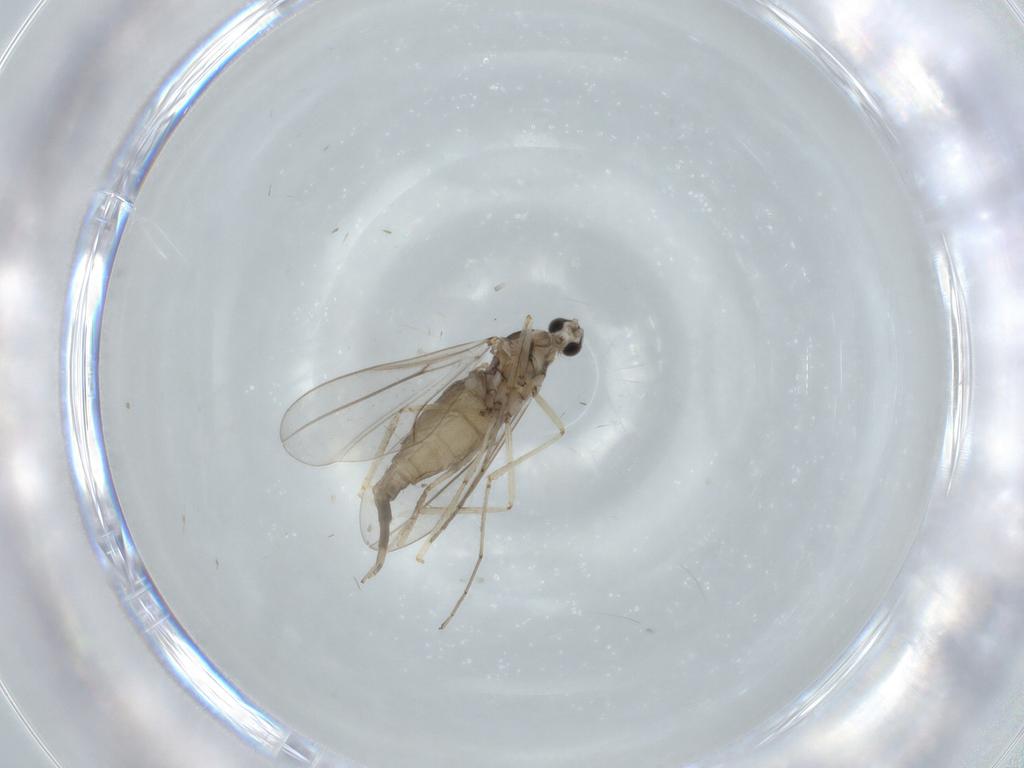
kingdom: Animalia
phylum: Arthropoda
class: Insecta
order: Diptera
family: Cecidomyiidae
